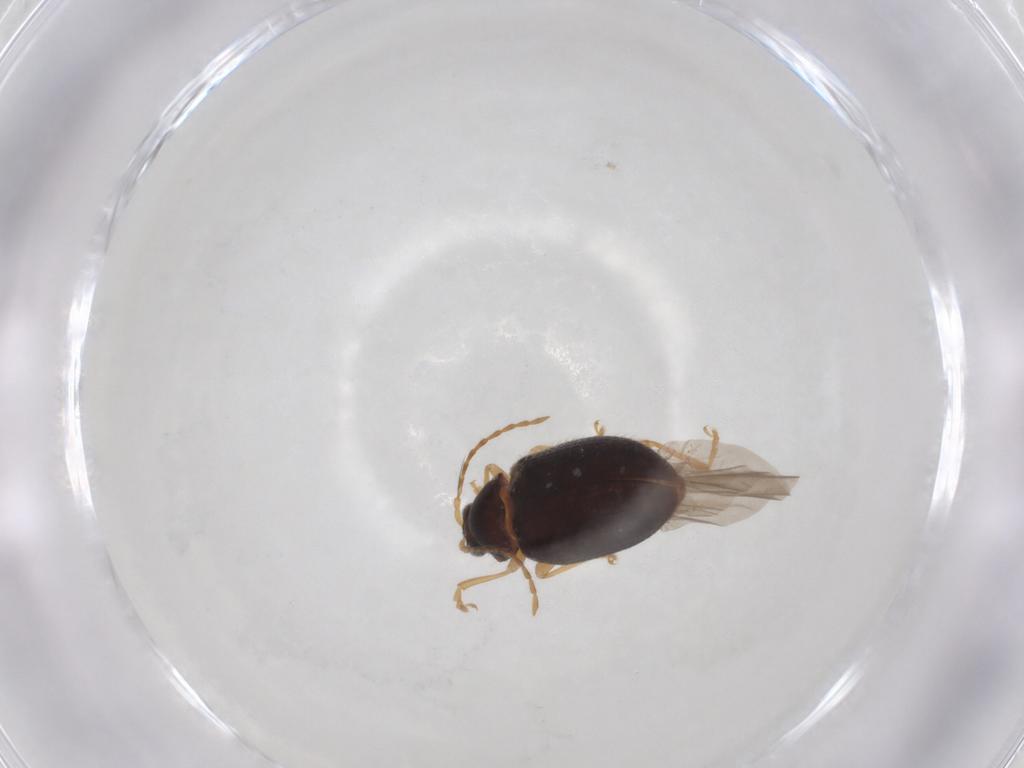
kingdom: Animalia
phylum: Arthropoda
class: Insecta
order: Coleoptera
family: Chrysomelidae
